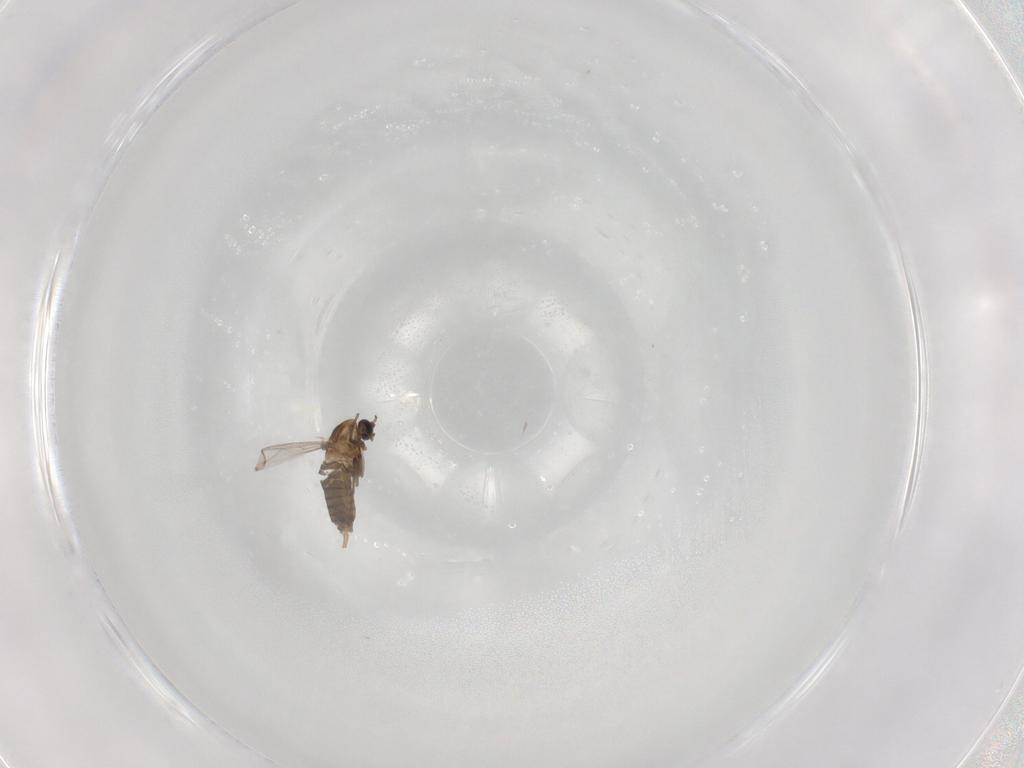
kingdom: Animalia
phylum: Arthropoda
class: Insecta
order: Diptera
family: Chironomidae
